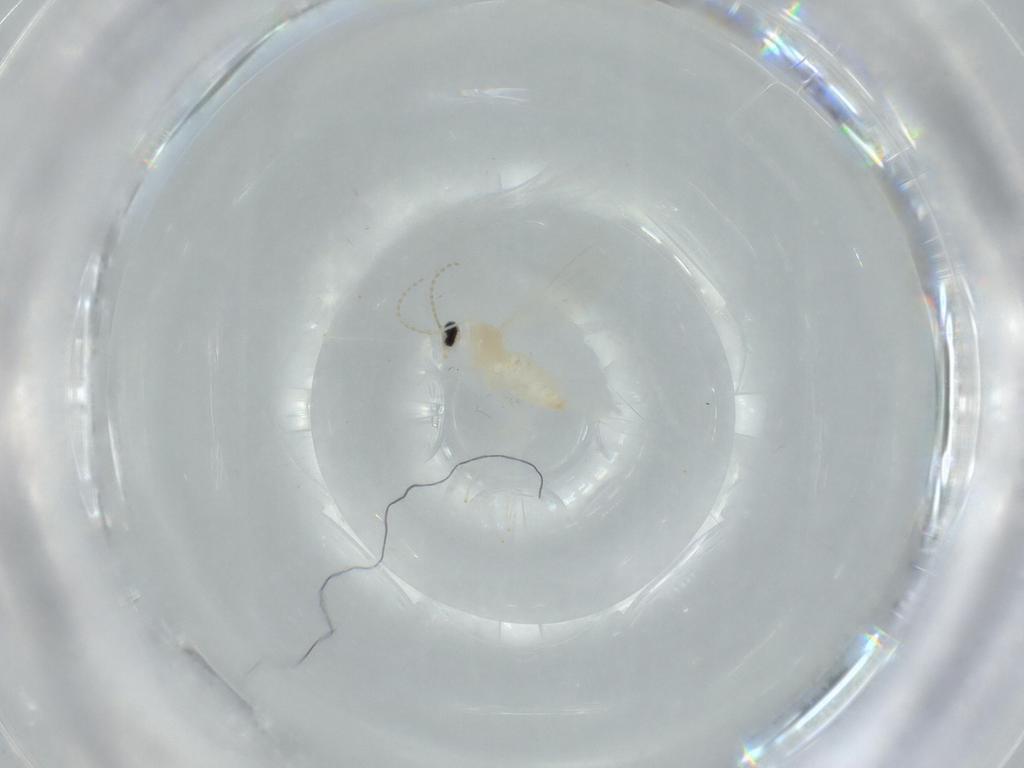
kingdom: Animalia
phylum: Arthropoda
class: Insecta
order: Diptera
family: Cecidomyiidae
